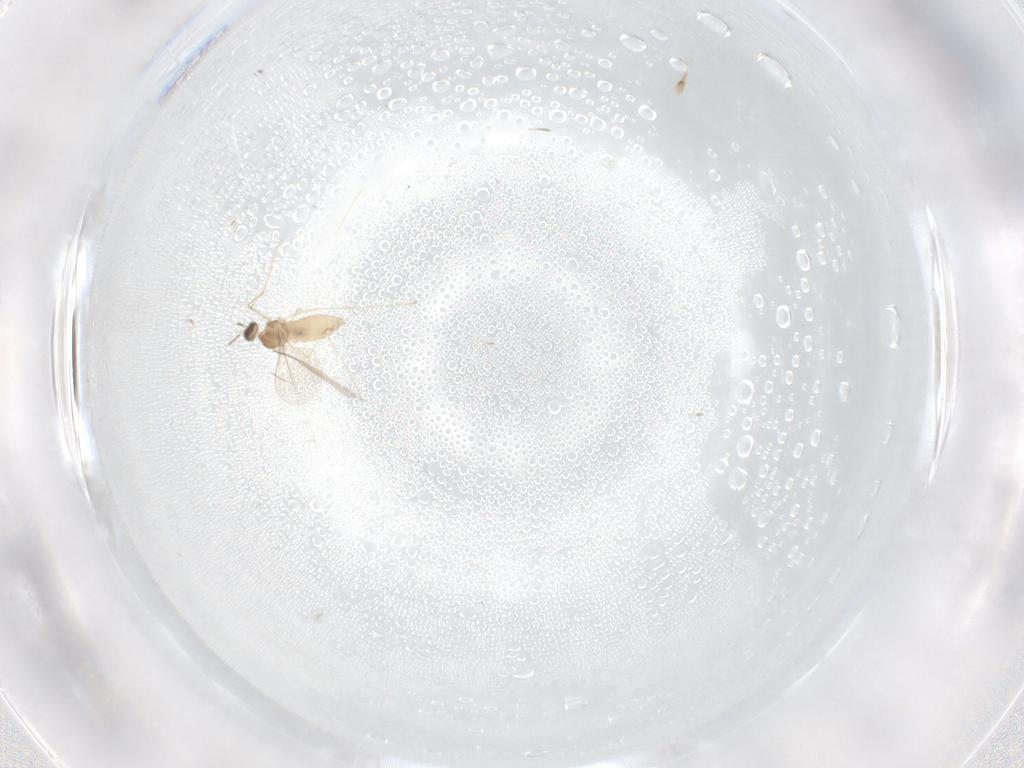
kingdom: Animalia
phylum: Arthropoda
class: Insecta
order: Diptera
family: Cecidomyiidae
